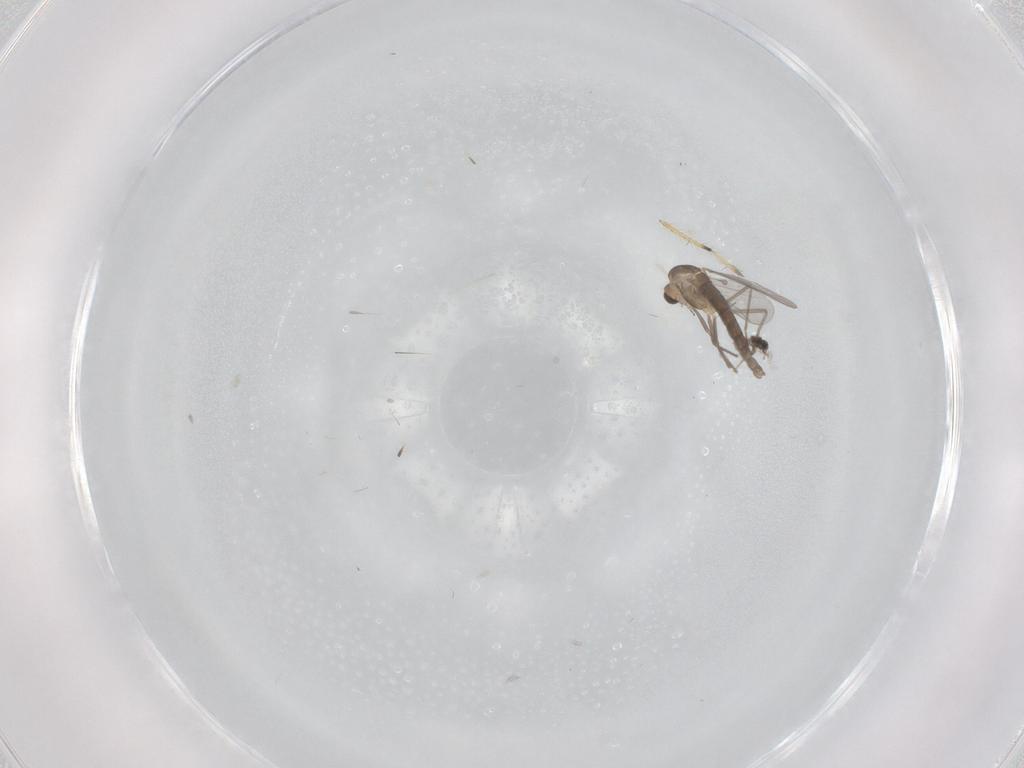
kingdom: Animalia
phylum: Arthropoda
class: Insecta
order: Diptera
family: Chironomidae
